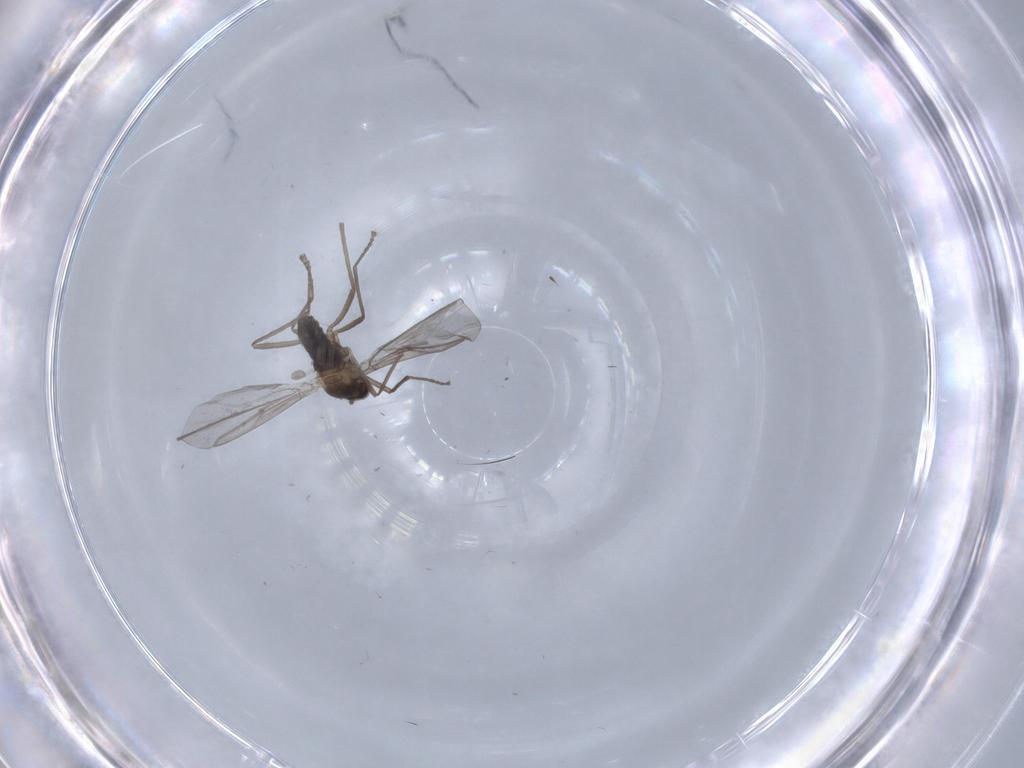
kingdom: Animalia
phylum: Arthropoda
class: Insecta
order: Diptera
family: Cecidomyiidae
